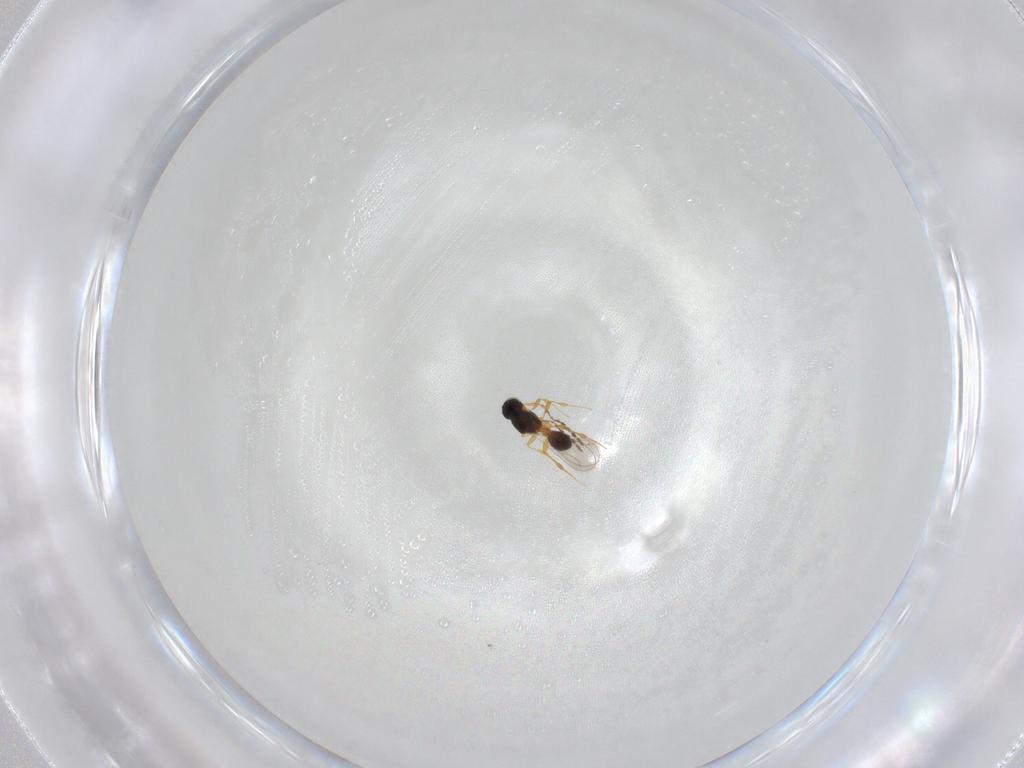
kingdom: Animalia
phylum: Arthropoda
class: Insecta
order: Hymenoptera
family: Platygastridae
